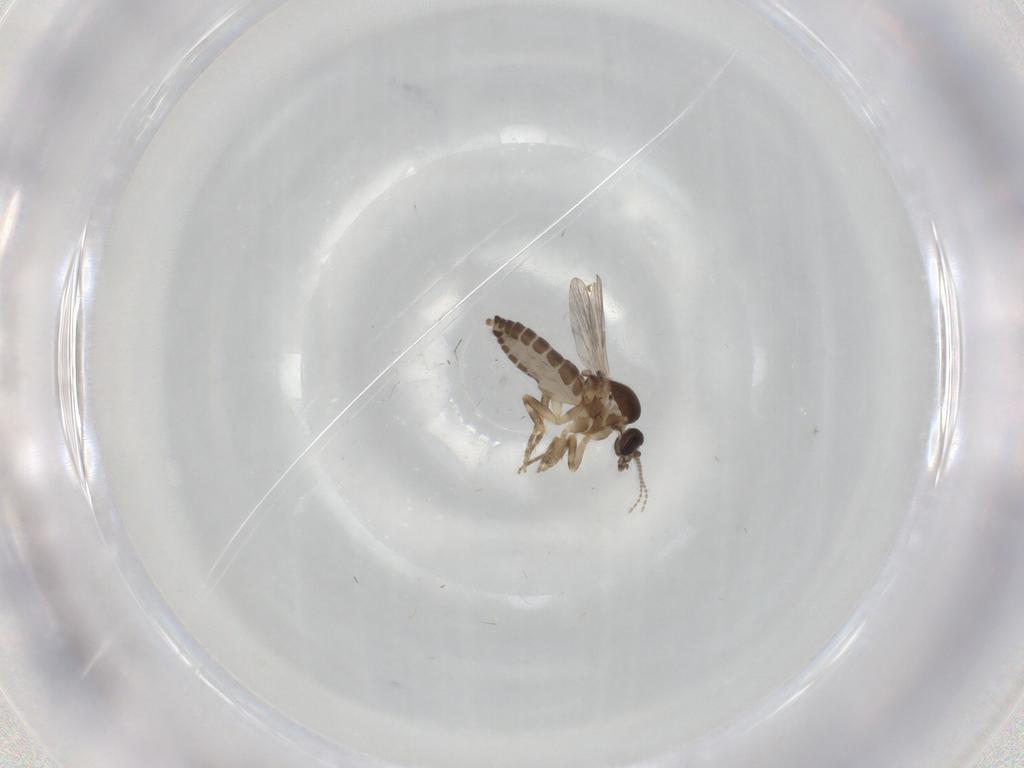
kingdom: Animalia
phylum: Arthropoda
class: Insecta
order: Diptera
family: Ceratopogonidae
